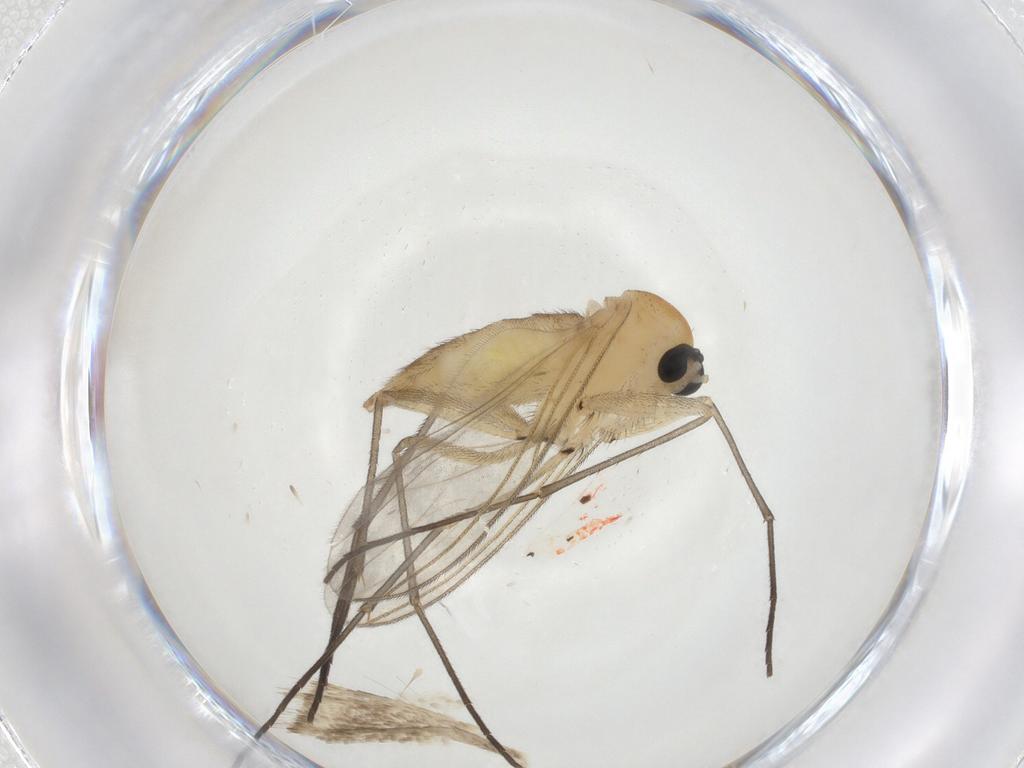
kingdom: Animalia
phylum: Arthropoda
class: Insecta
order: Diptera
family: Sciaridae
